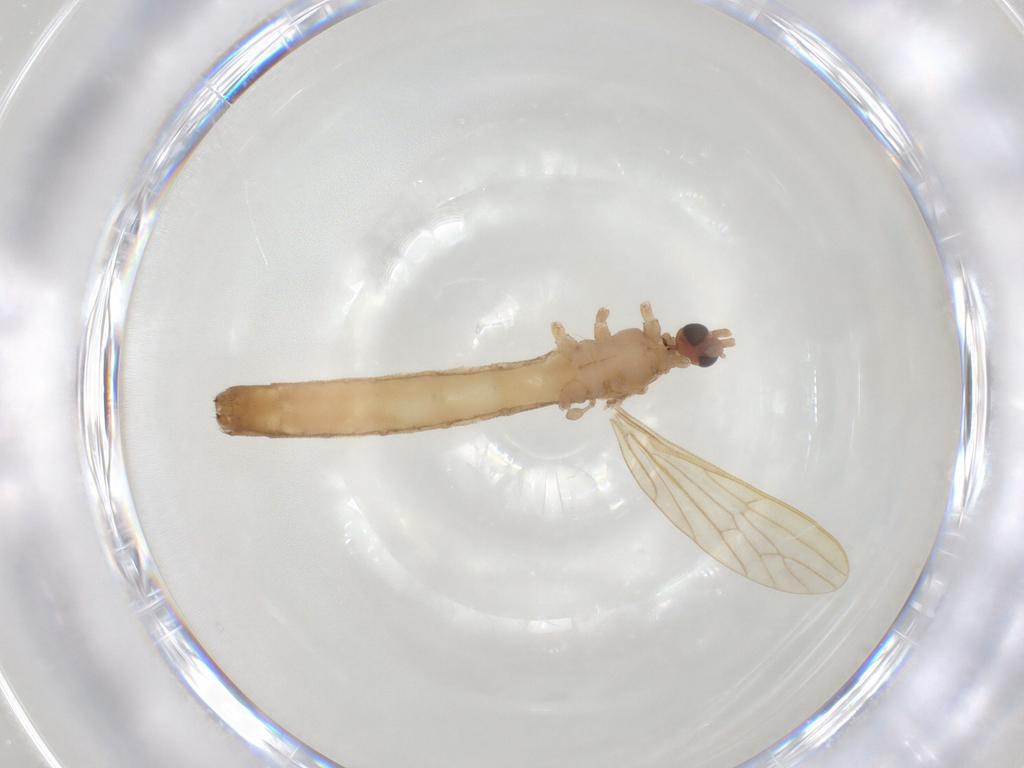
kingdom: Animalia
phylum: Arthropoda
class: Insecta
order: Diptera
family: Limoniidae
